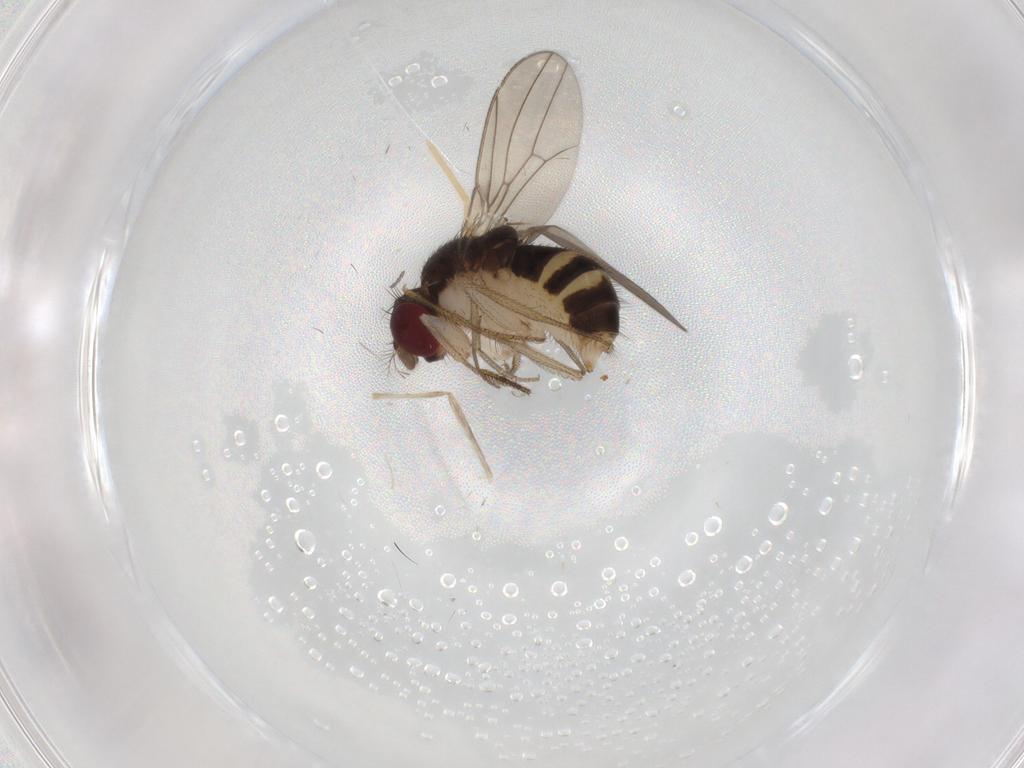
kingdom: Animalia
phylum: Arthropoda
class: Insecta
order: Diptera
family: Drosophilidae
